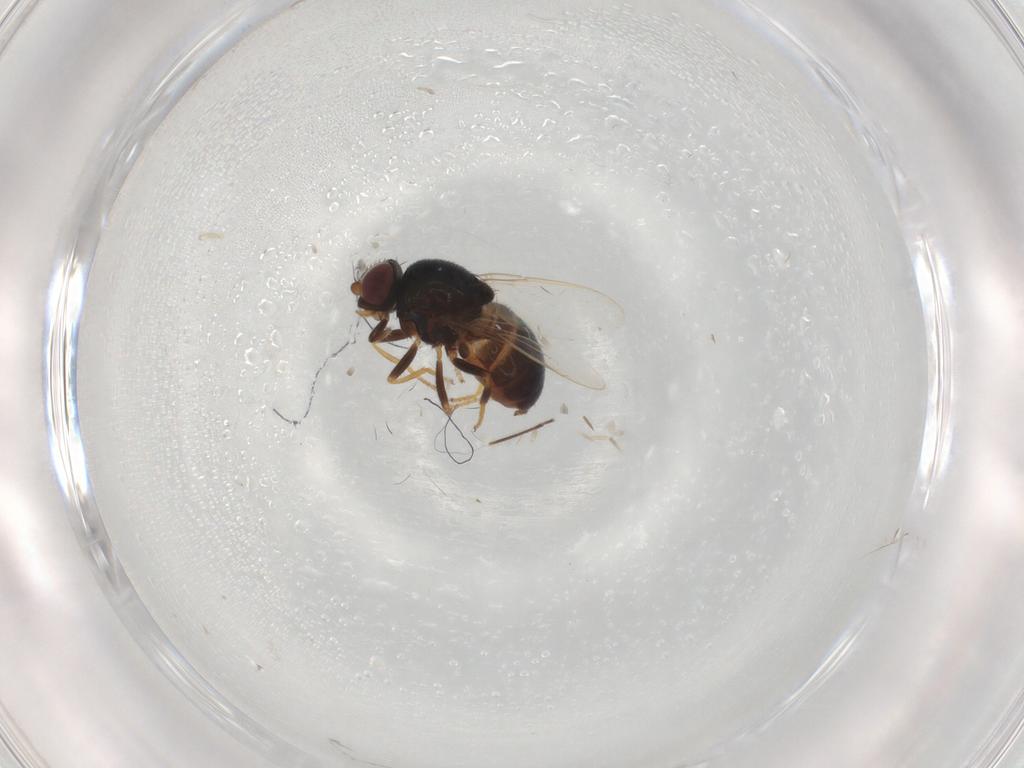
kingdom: Animalia
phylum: Arthropoda
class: Insecta
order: Diptera
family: Chloropidae
